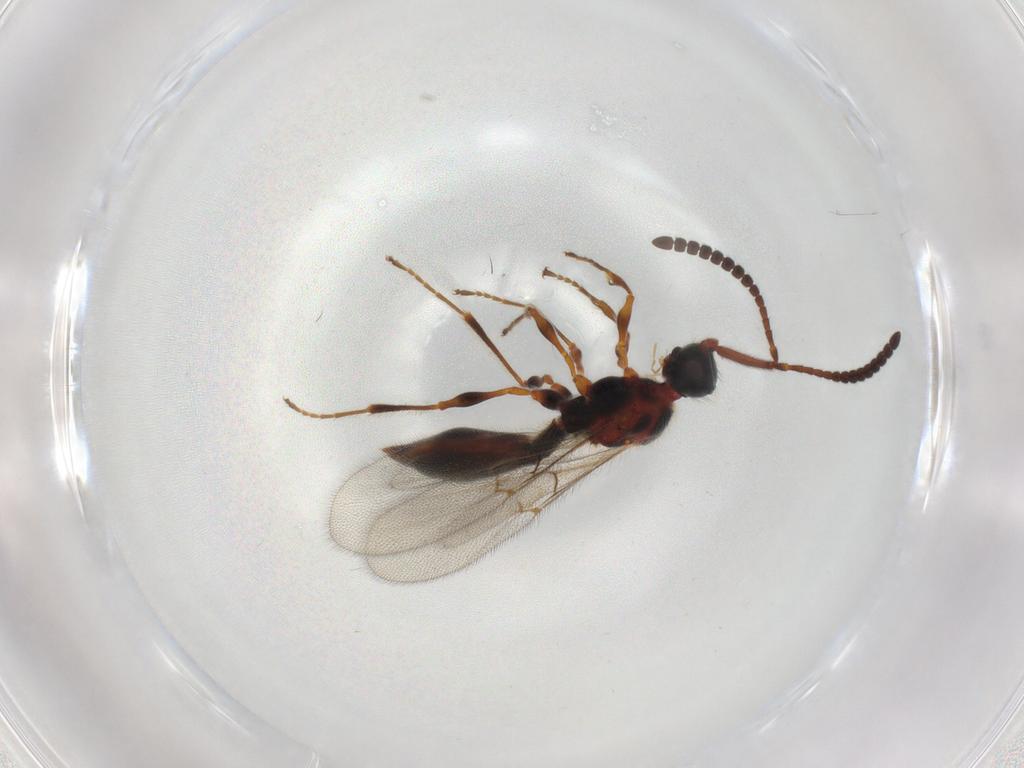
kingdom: Animalia
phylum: Arthropoda
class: Insecta
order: Hymenoptera
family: Diapriidae
